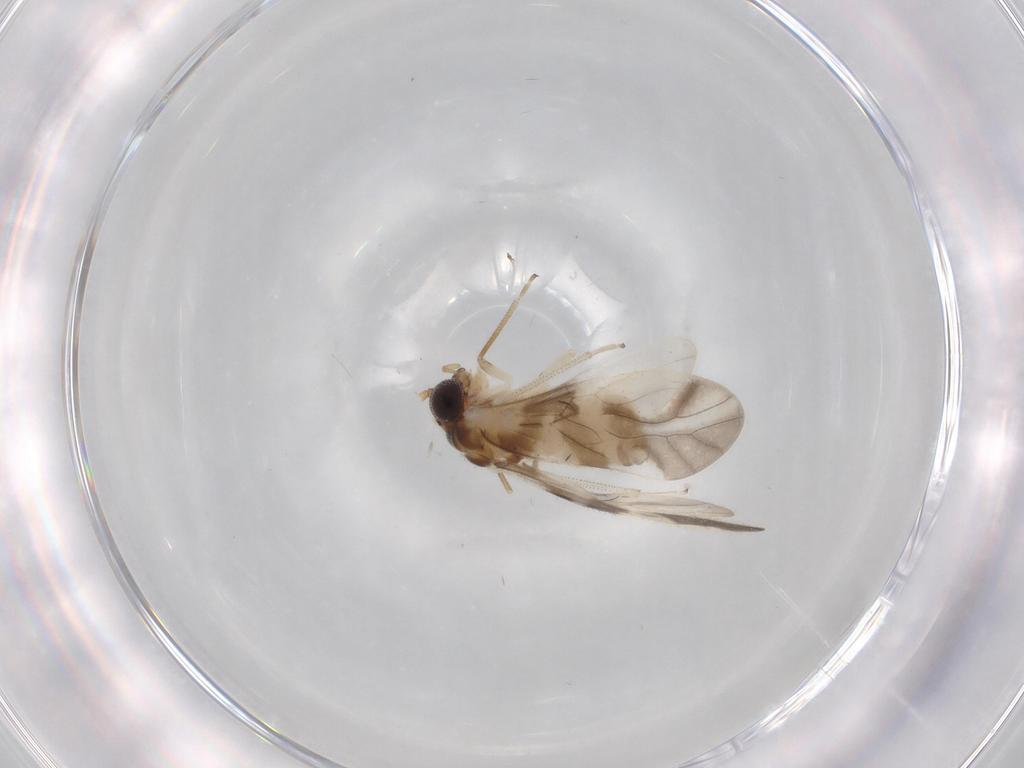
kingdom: Animalia
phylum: Arthropoda
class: Insecta
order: Psocodea
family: Caeciliusidae
